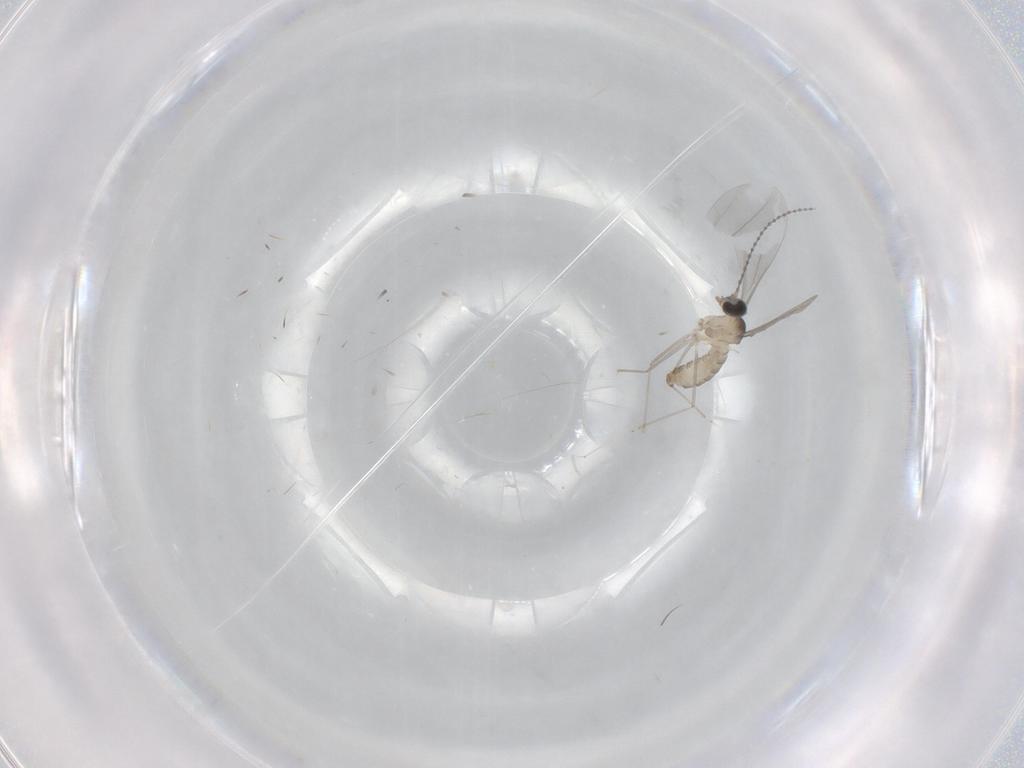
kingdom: Animalia
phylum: Arthropoda
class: Insecta
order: Diptera
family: Cecidomyiidae
